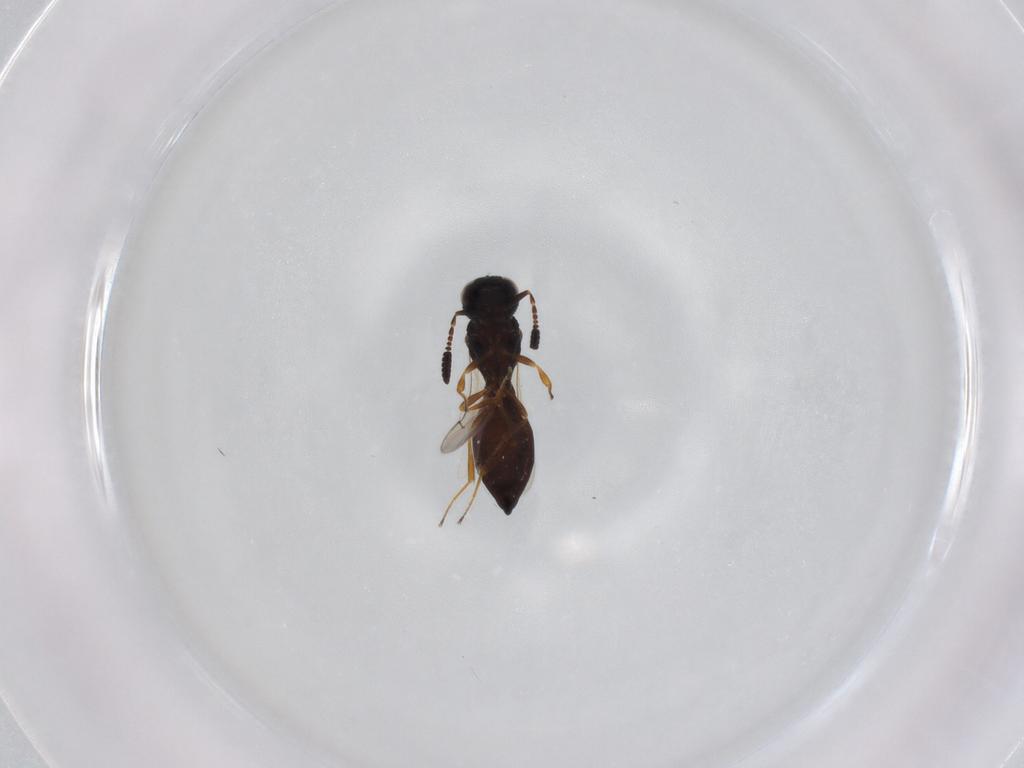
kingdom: Animalia
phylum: Arthropoda
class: Insecta
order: Hymenoptera
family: Scelionidae
